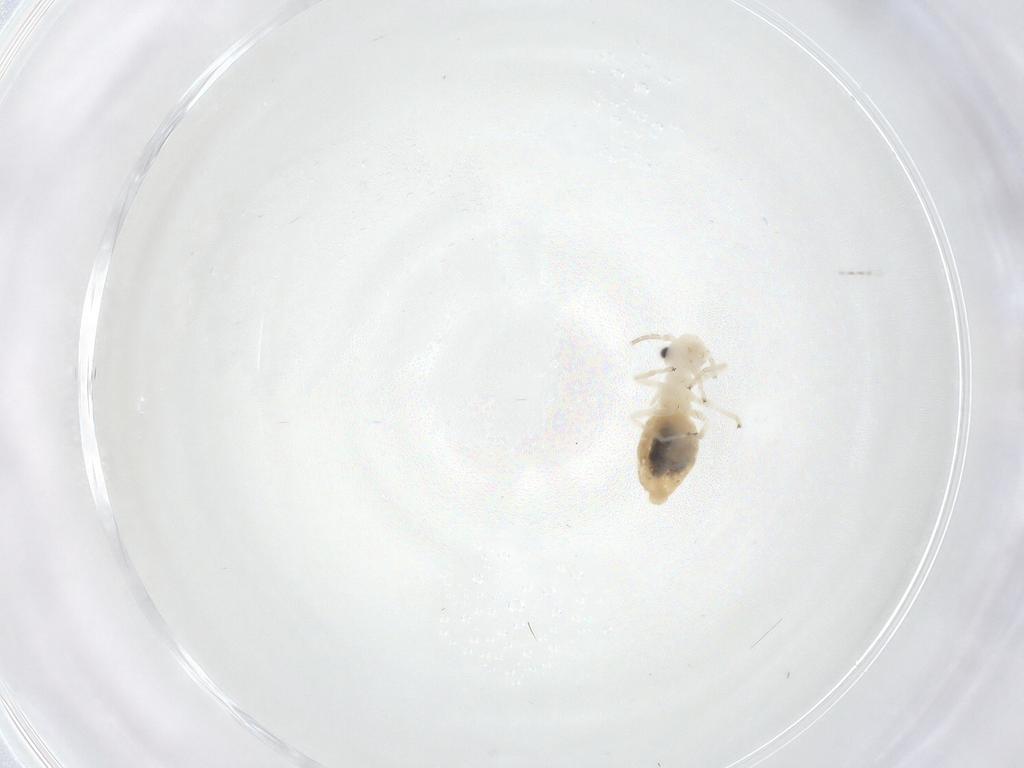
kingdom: Animalia
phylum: Arthropoda
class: Insecta
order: Psocodea
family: Caeciliusidae
